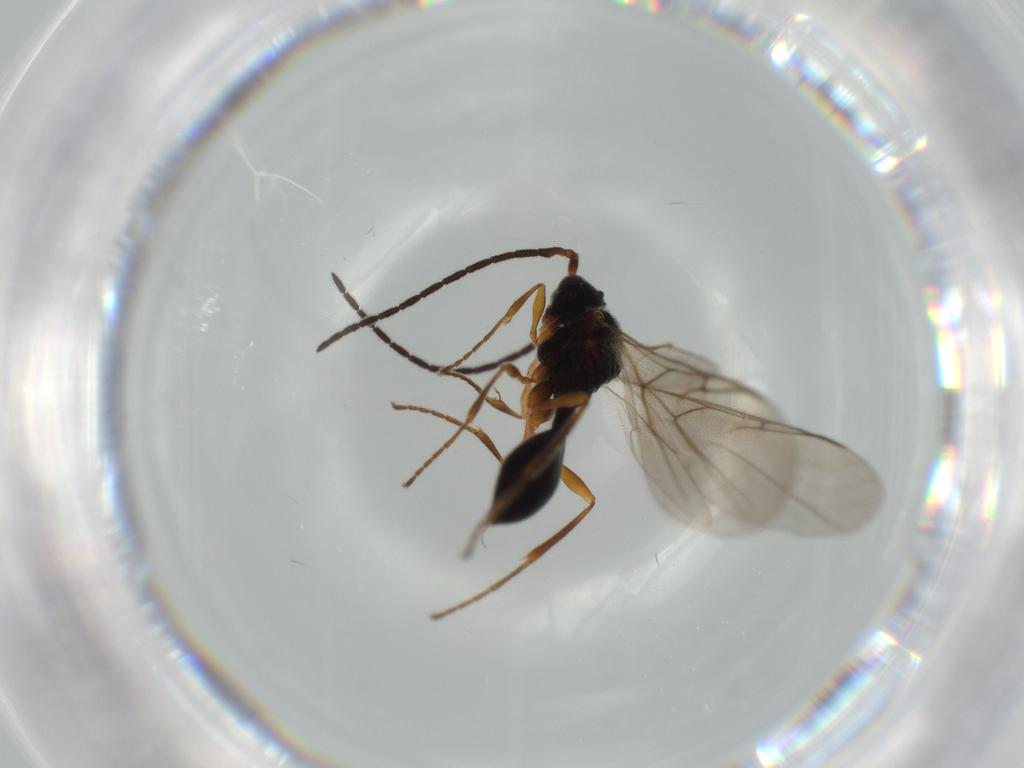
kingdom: Animalia
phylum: Arthropoda
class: Insecta
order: Hymenoptera
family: Diapriidae
